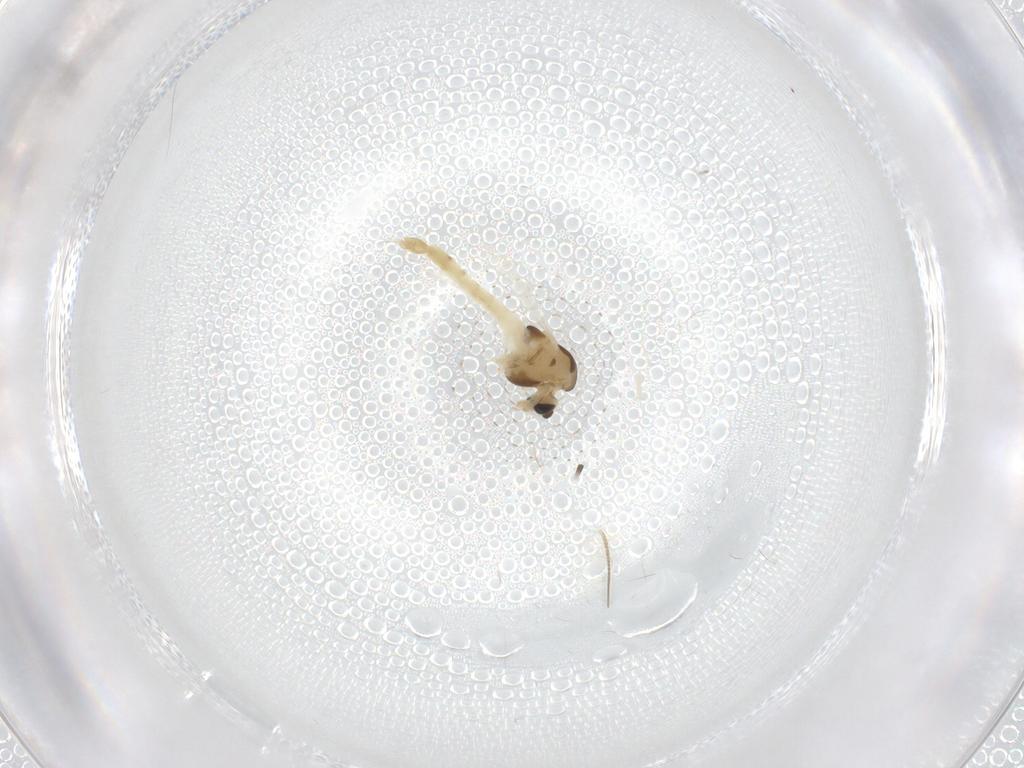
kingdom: Animalia
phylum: Arthropoda
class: Insecta
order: Diptera
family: Chironomidae
